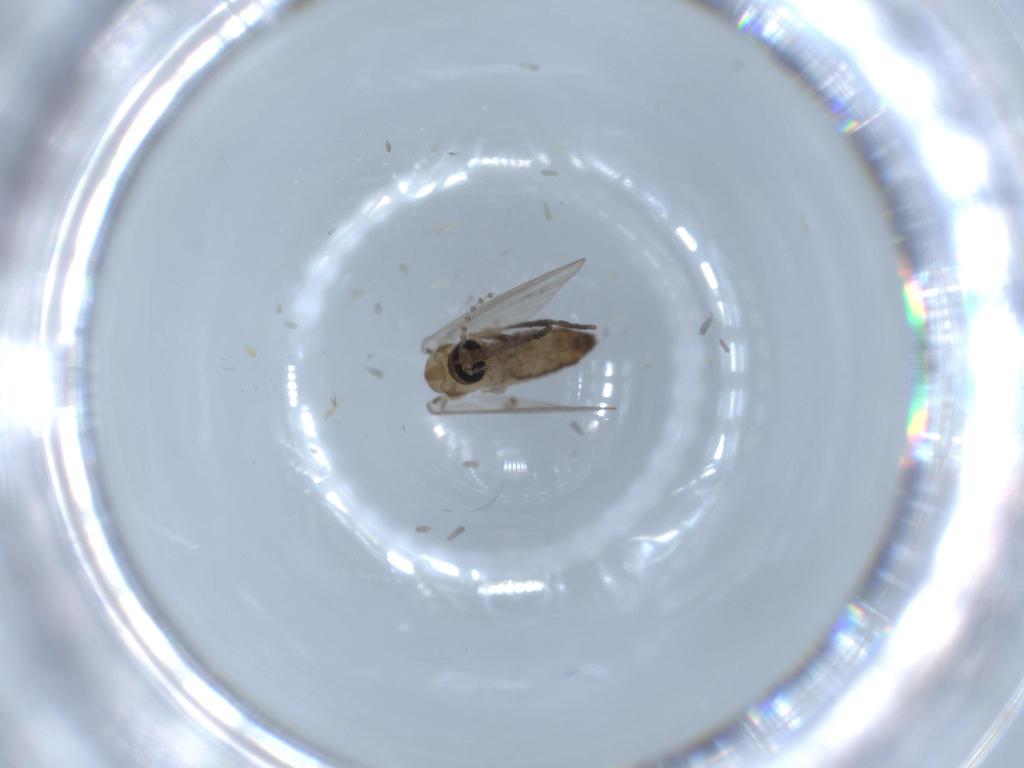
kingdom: Animalia
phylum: Arthropoda
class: Insecta
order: Diptera
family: Psychodidae
